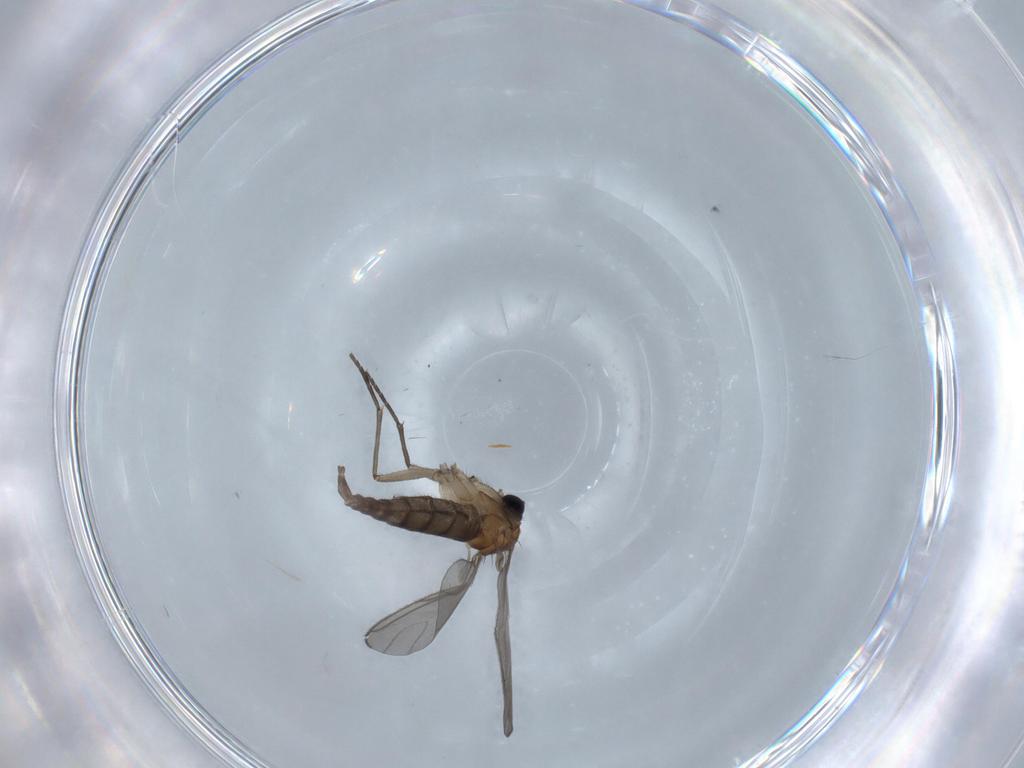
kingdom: Animalia
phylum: Arthropoda
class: Insecta
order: Diptera
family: Sciaridae
